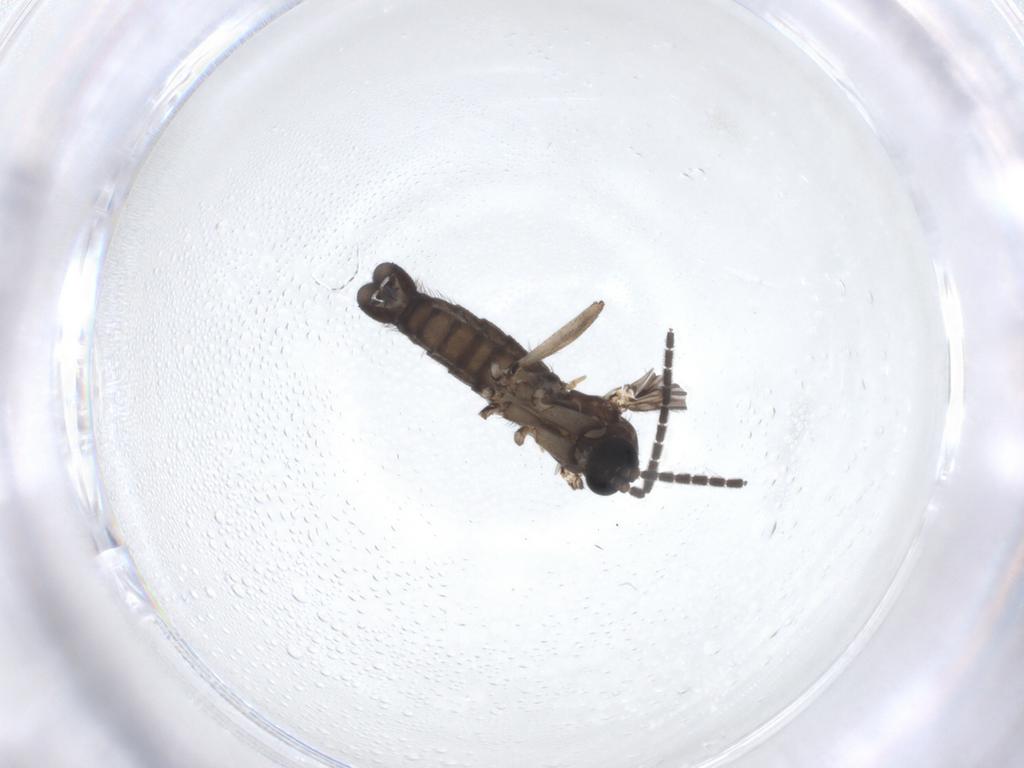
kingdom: Animalia
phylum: Arthropoda
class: Insecta
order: Diptera
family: Sciaridae
